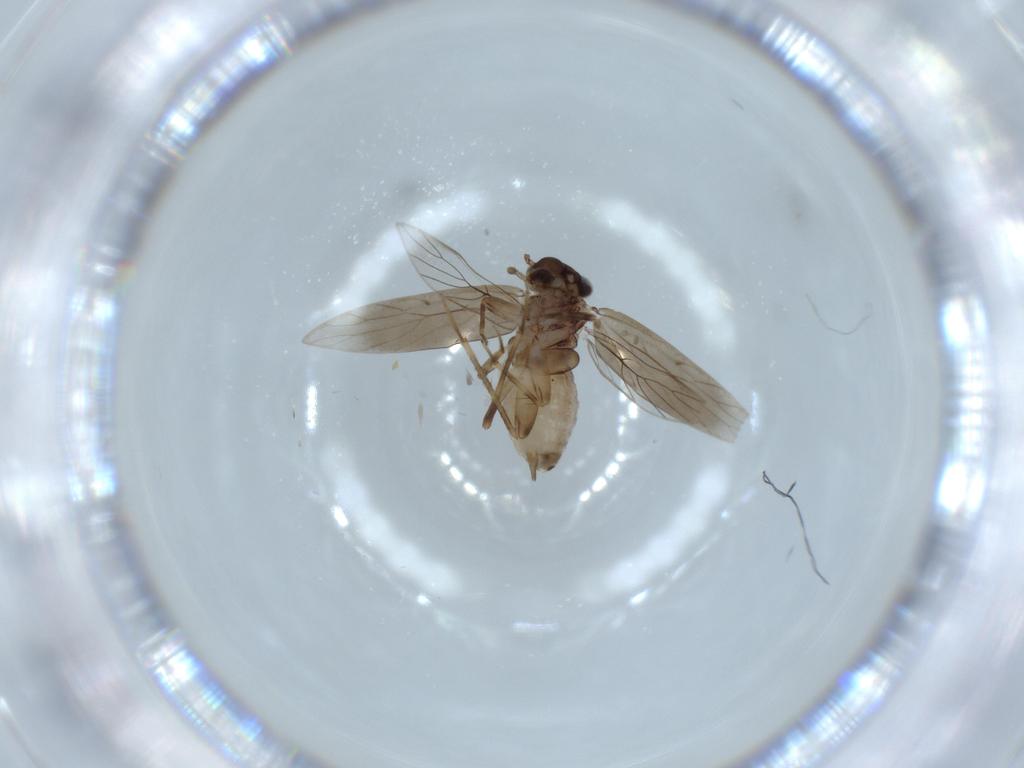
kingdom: Animalia
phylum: Arthropoda
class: Insecta
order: Psocodea
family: Lepidopsocidae
